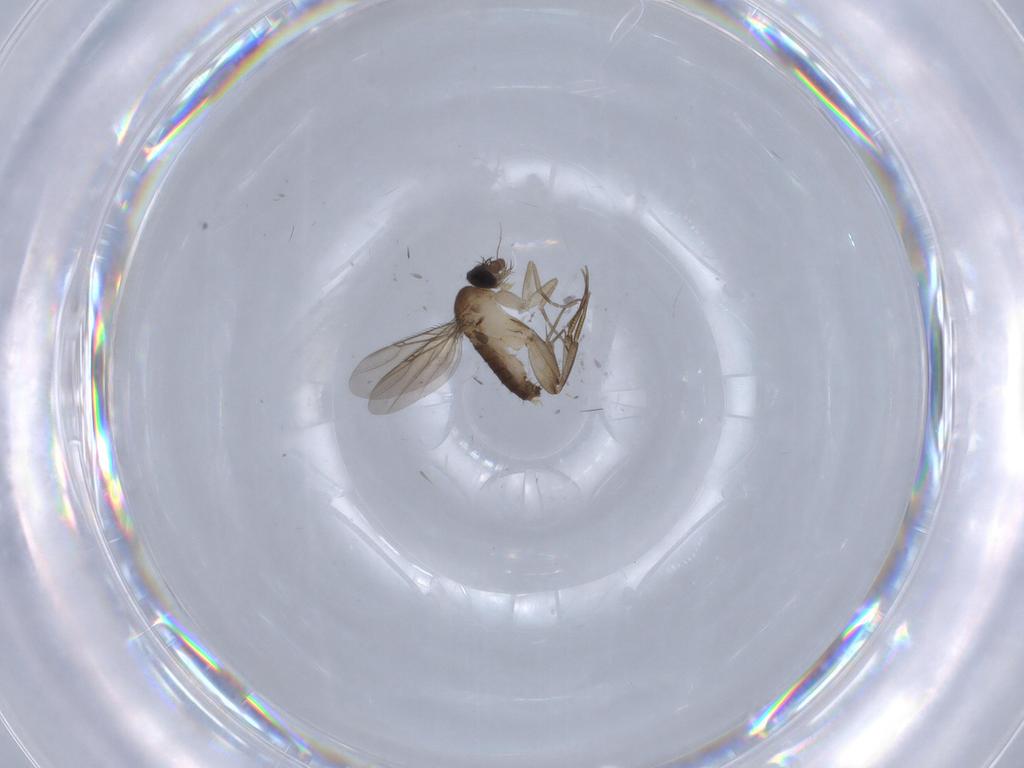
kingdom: Animalia
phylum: Arthropoda
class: Insecta
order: Diptera
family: Phoridae
